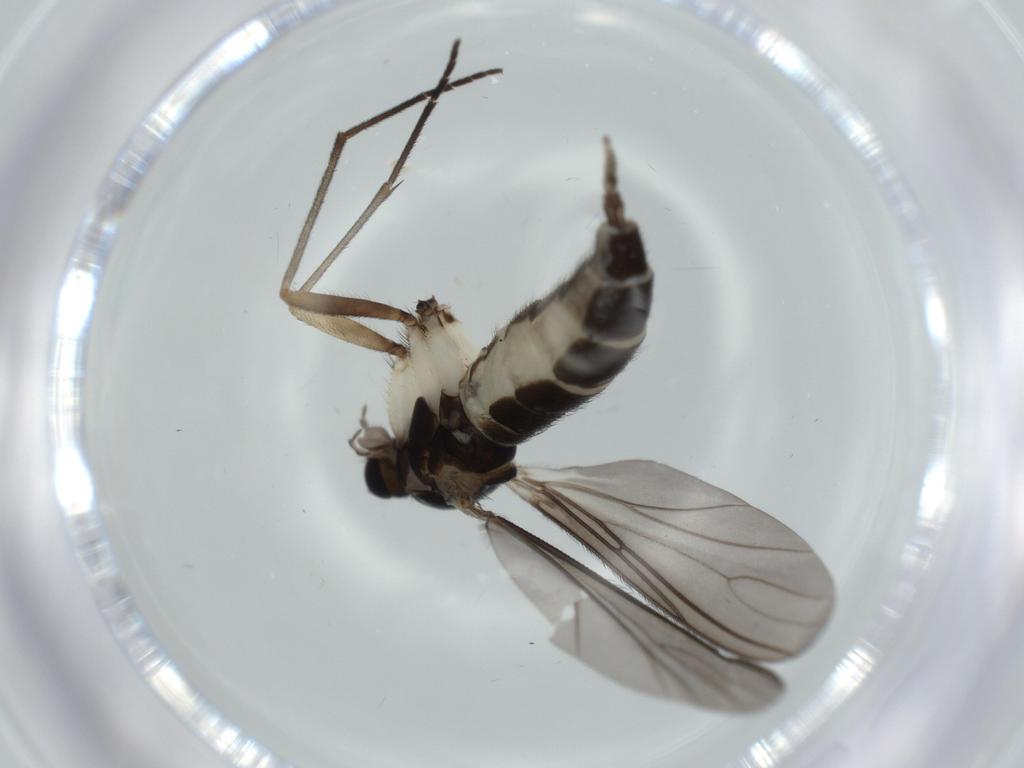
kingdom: Animalia
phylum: Arthropoda
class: Insecta
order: Diptera
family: Sciaridae
